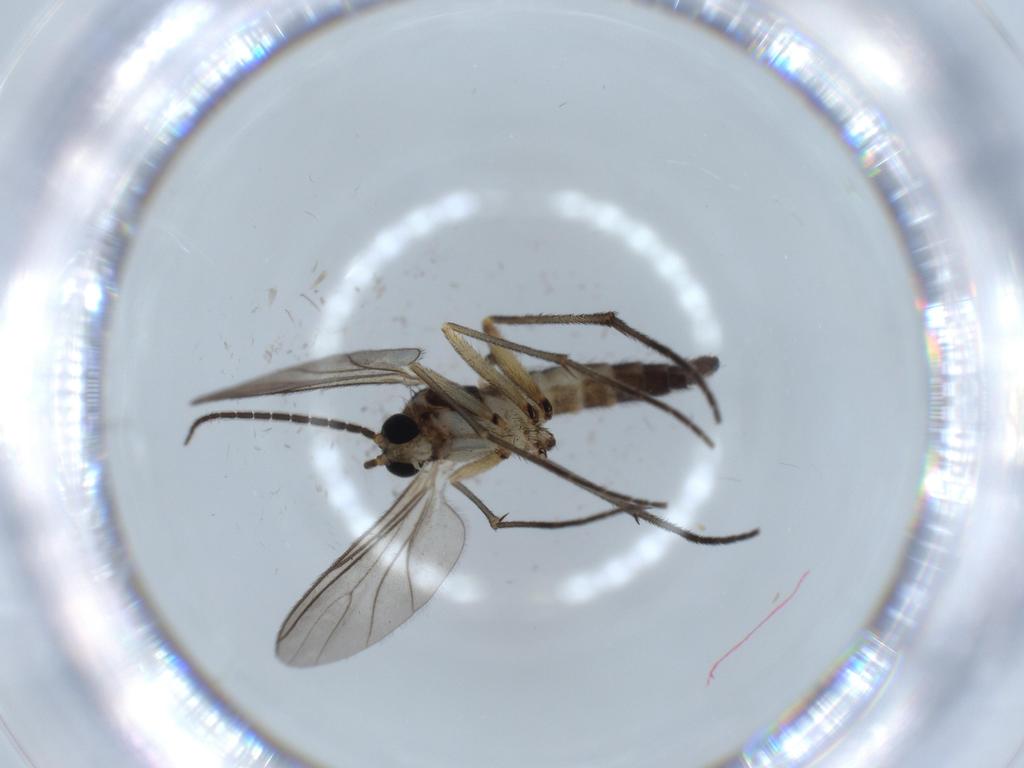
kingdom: Animalia
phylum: Arthropoda
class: Insecta
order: Diptera
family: Sciaridae
